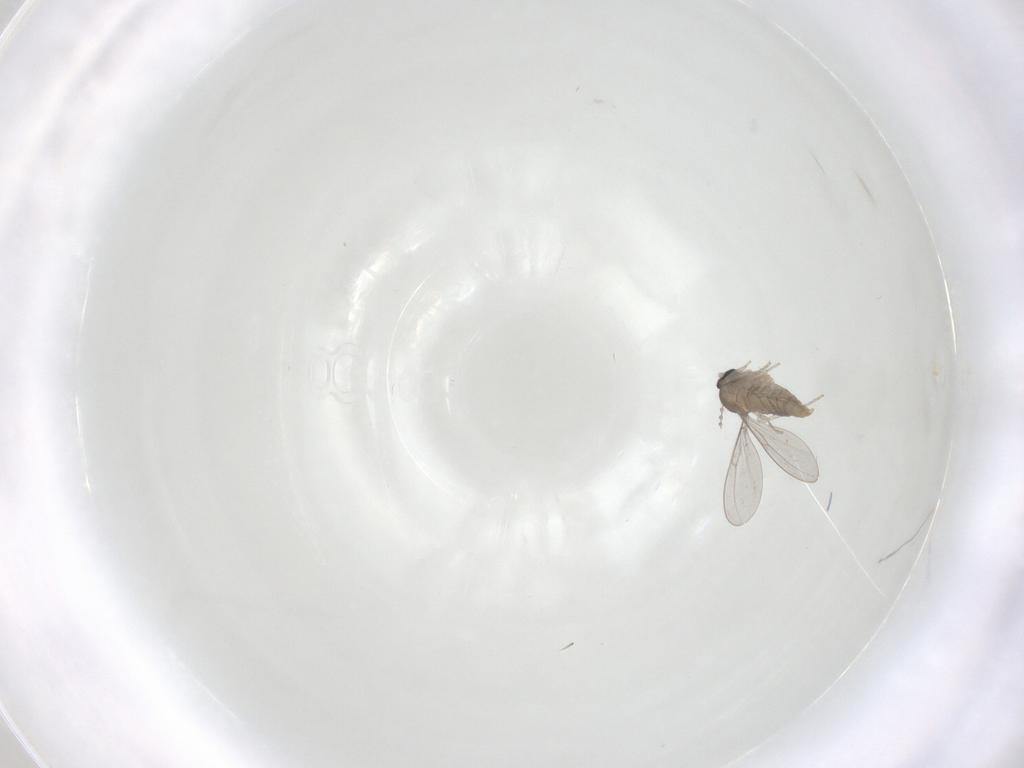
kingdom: Animalia
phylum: Arthropoda
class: Insecta
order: Diptera
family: Cecidomyiidae
